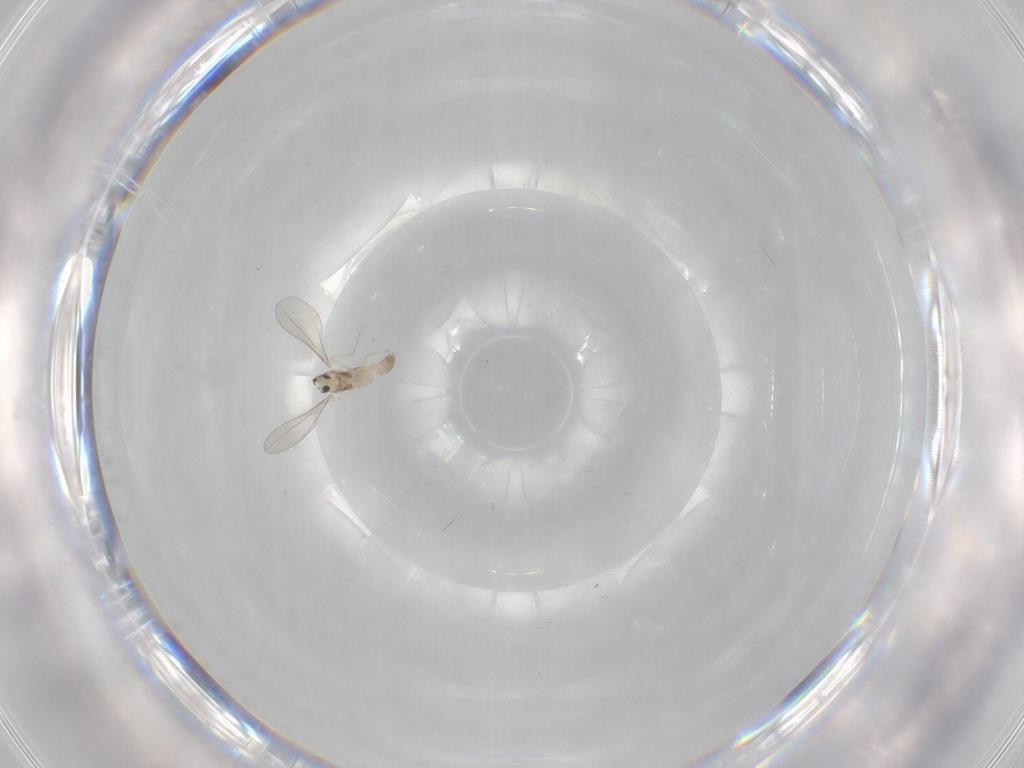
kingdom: Animalia
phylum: Arthropoda
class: Insecta
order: Diptera
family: Cecidomyiidae
